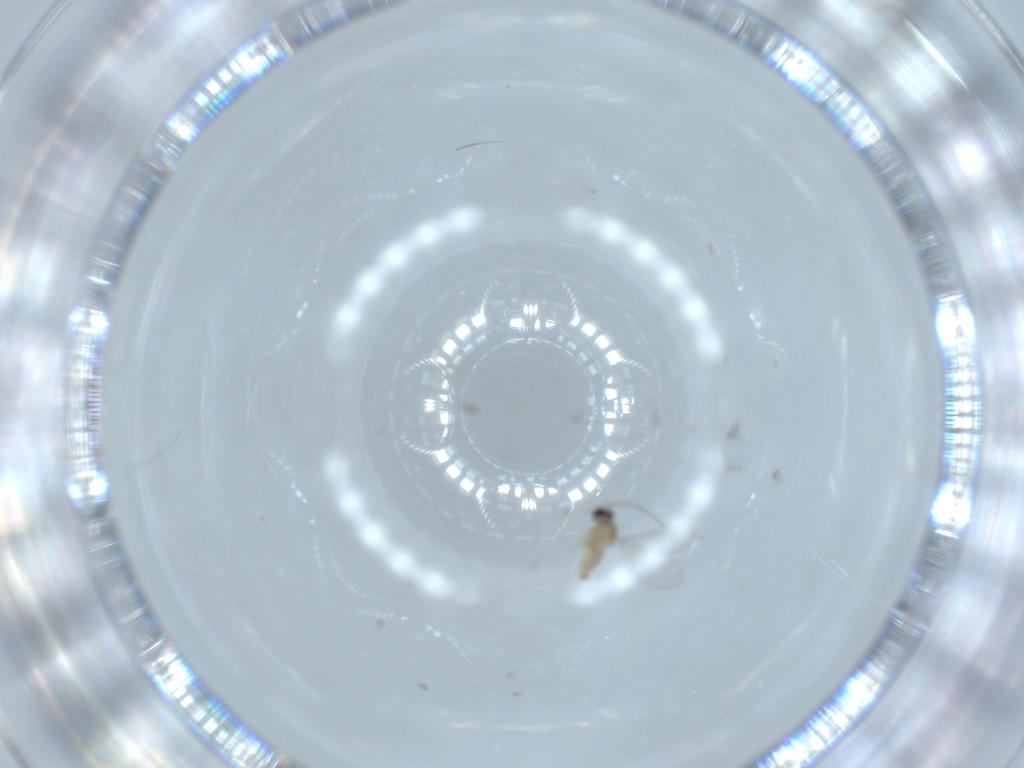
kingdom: Animalia
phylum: Arthropoda
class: Insecta
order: Diptera
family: Cecidomyiidae
